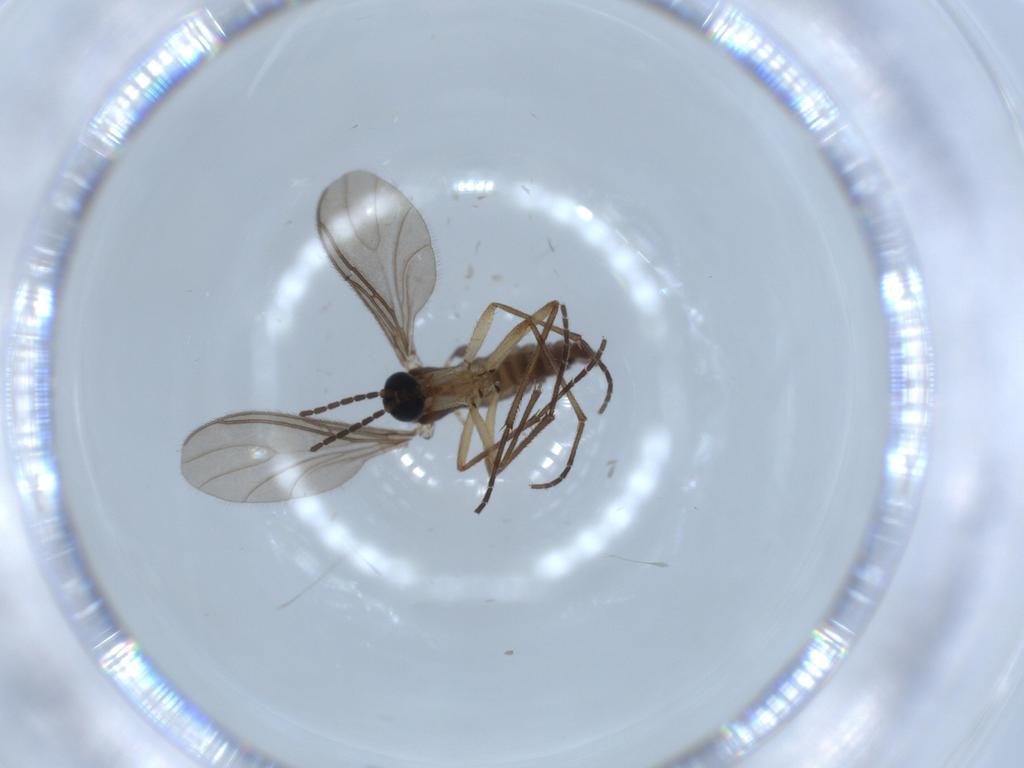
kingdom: Animalia
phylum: Arthropoda
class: Insecta
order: Diptera
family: Sciaridae
